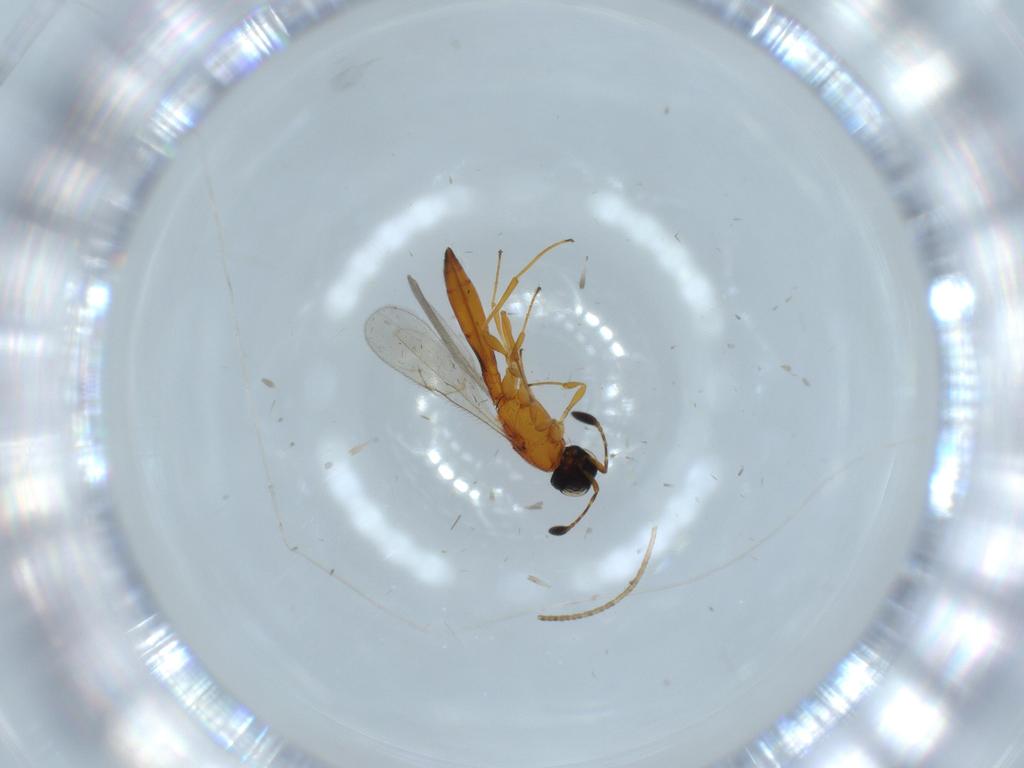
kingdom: Animalia
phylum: Arthropoda
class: Insecta
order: Hymenoptera
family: Scelionidae
